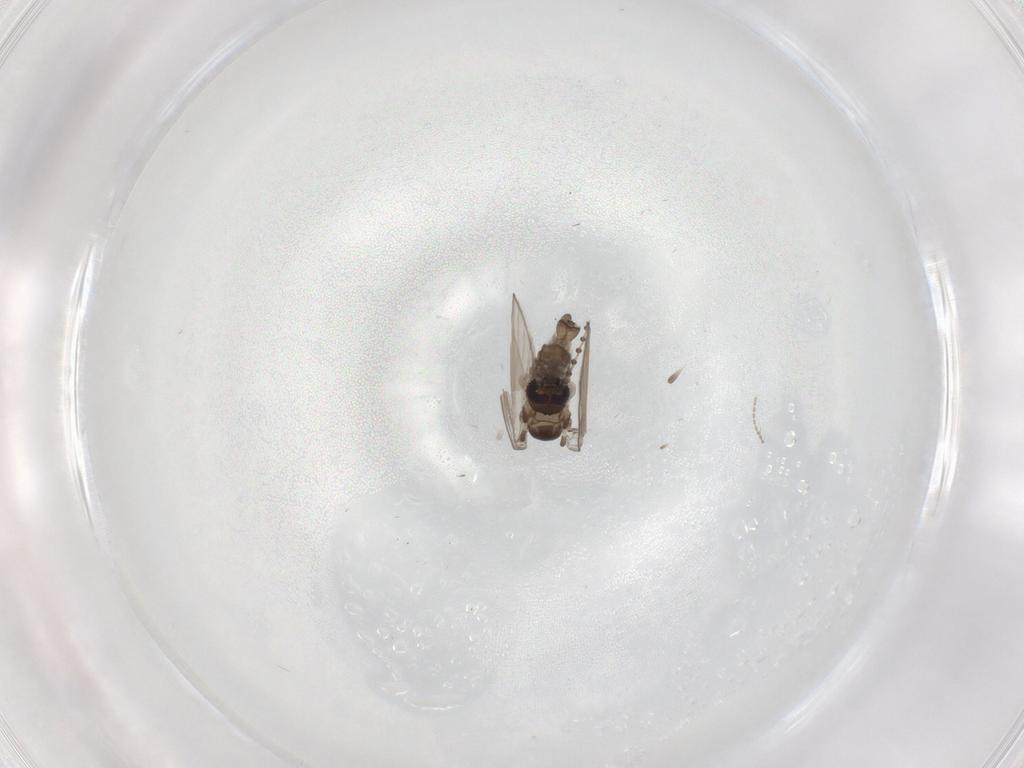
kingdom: Animalia
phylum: Arthropoda
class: Insecta
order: Diptera
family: Psychodidae
